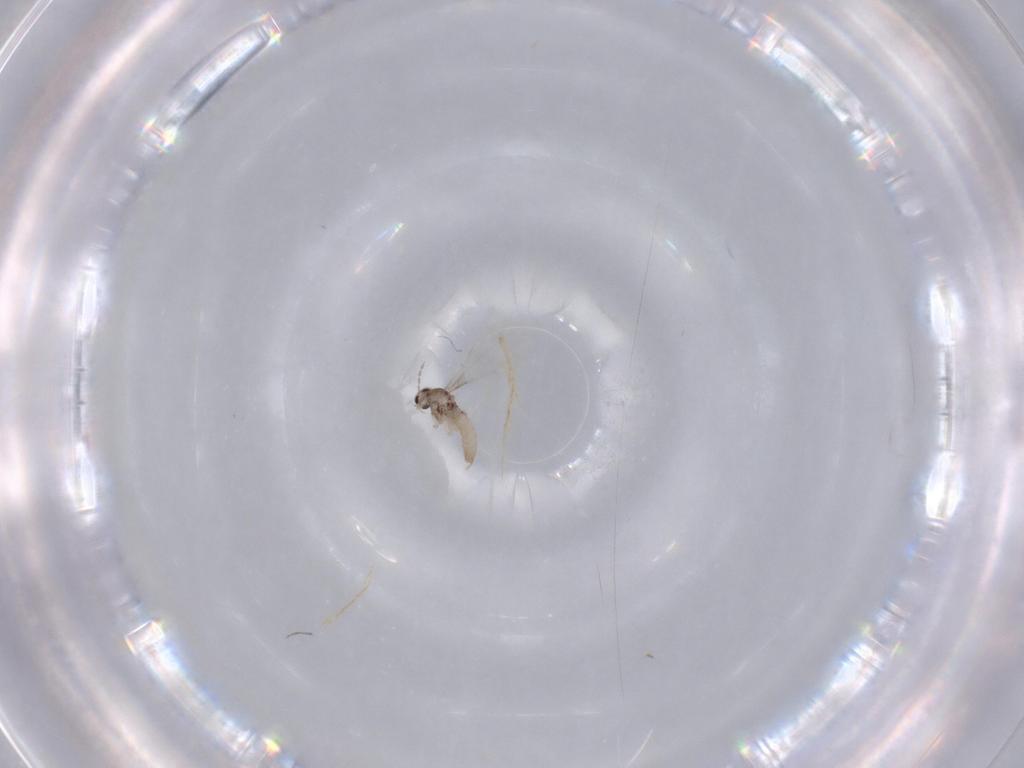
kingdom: Animalia
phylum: Arthropoda
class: Insecta
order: Diptera
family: Cecidomyiidae
